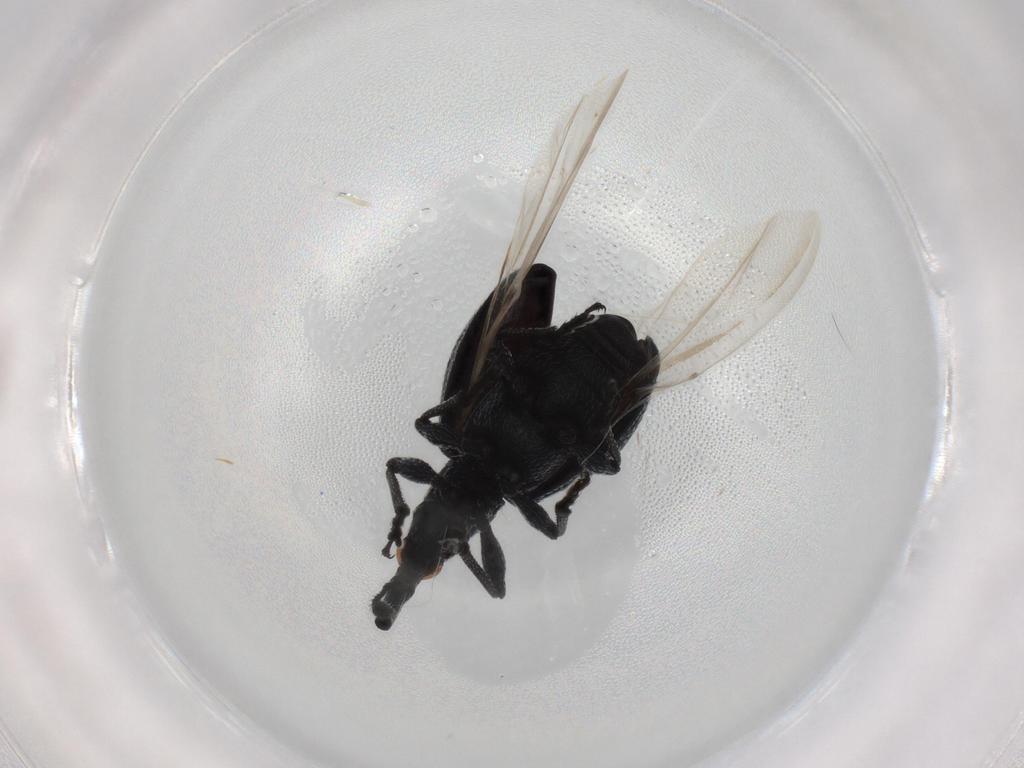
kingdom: Animalia
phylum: Arthropoda
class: Insecta
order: Coleoptera
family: Brentidae
